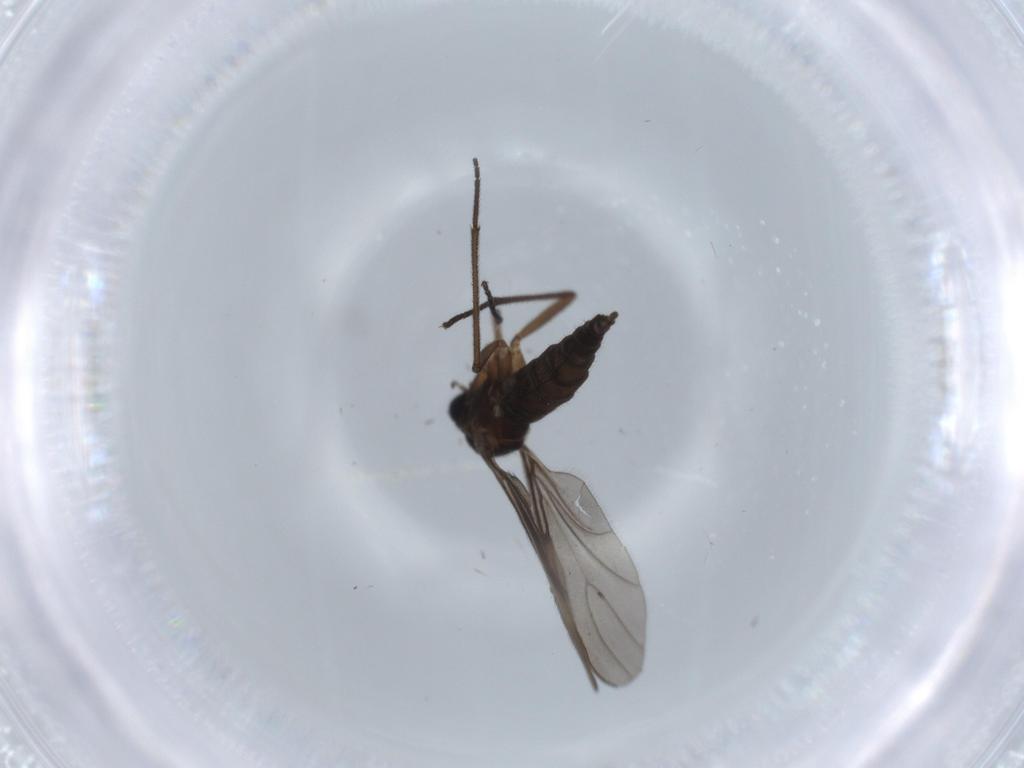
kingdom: Animalia
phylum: Arthropoda
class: Insecta
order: Diptera
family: Sciaridae
